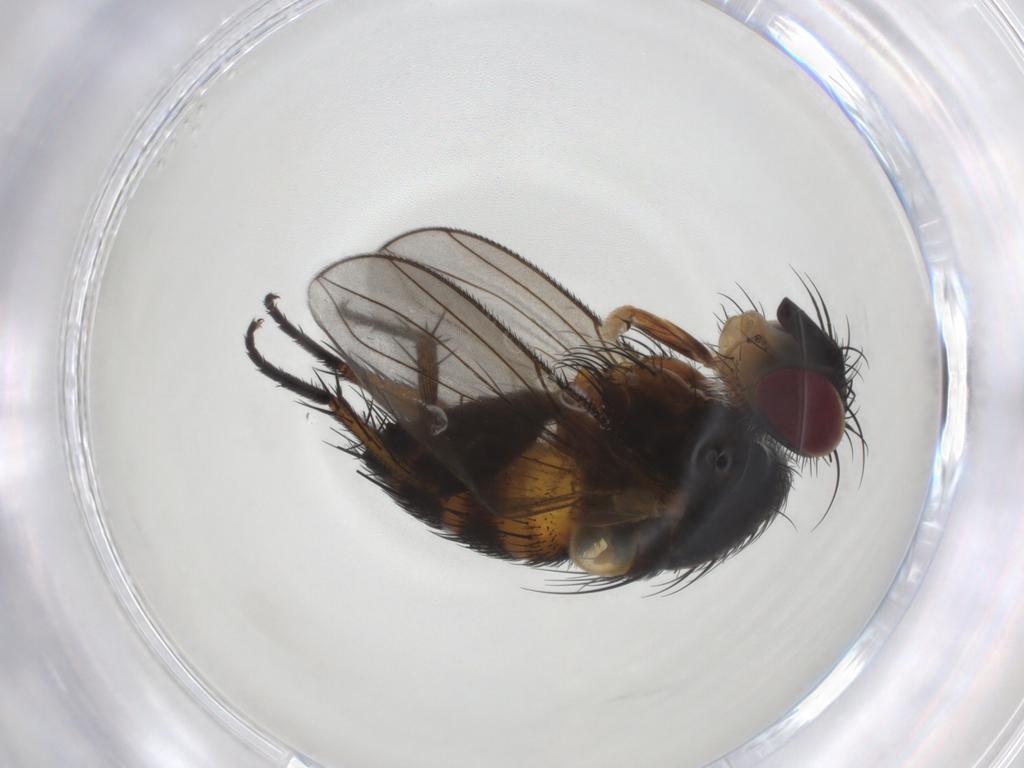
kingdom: Animalia
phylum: Arthropoda
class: Insecta
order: Diptera
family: Tachinidae
